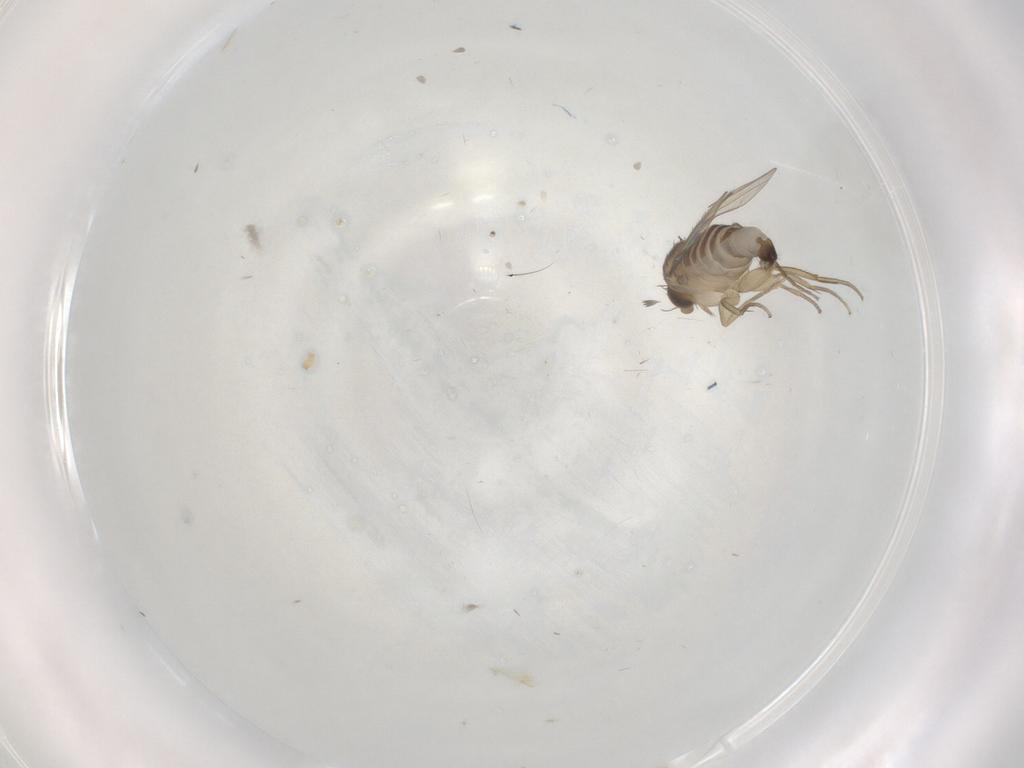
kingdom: Animalia
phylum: Arthropoda
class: Insecta
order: Diptera
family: Phoridae
